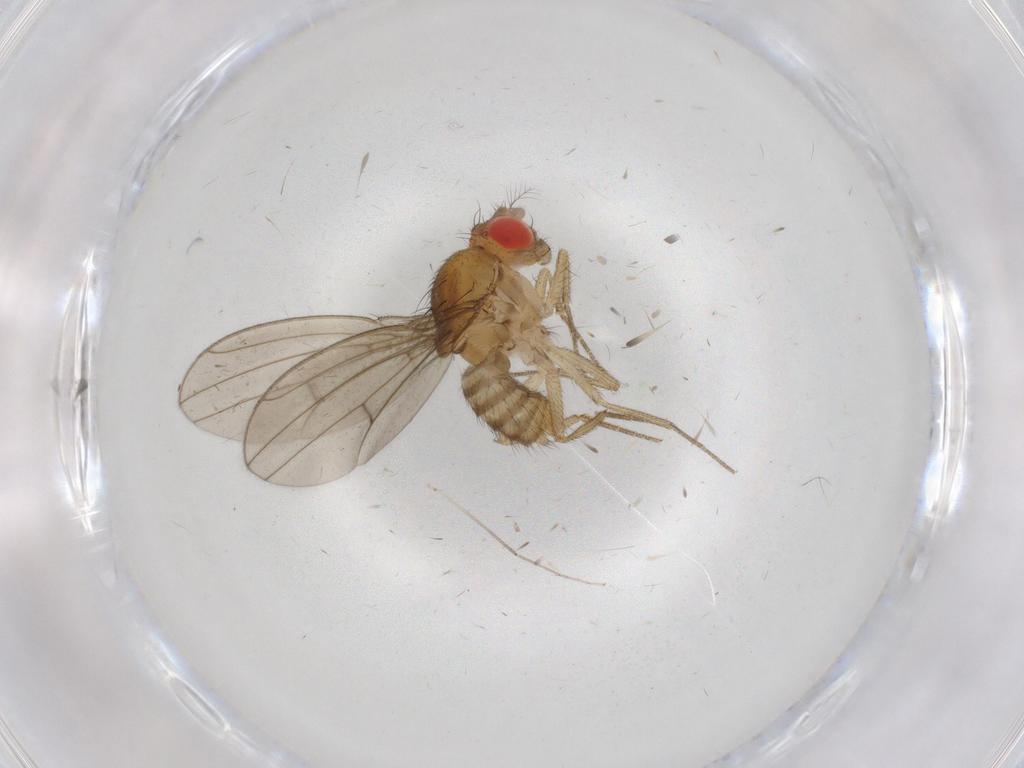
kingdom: Animalia
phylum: Arthropoda
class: Insecta
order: Diptera
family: Drosophilidae
